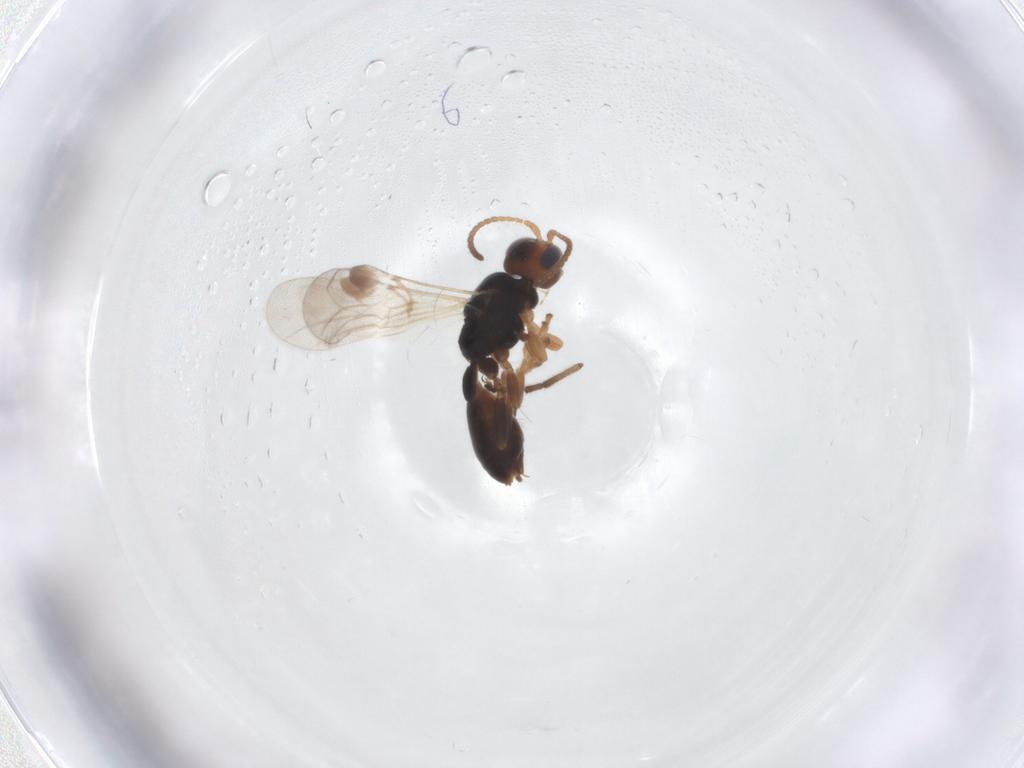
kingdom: Animalia
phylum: Arthropoda
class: Insecta
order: Hymenoptera
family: Braconidae
